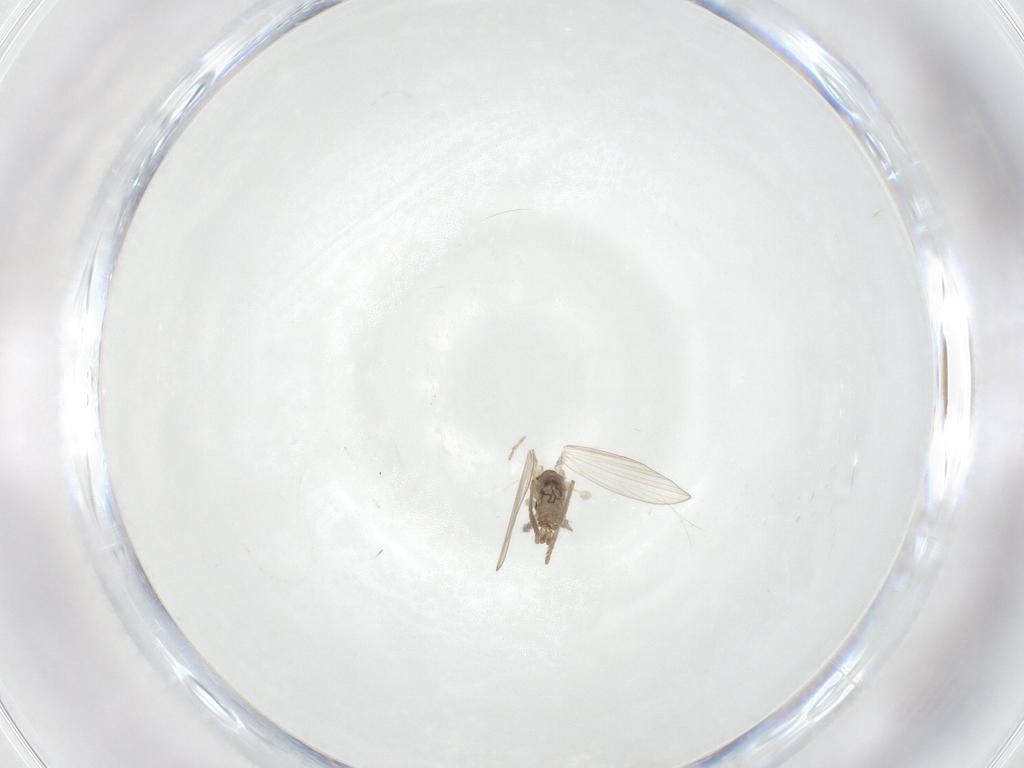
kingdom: Animalia
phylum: Arthropoda
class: Insecta
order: Diptera
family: Psychodidae
